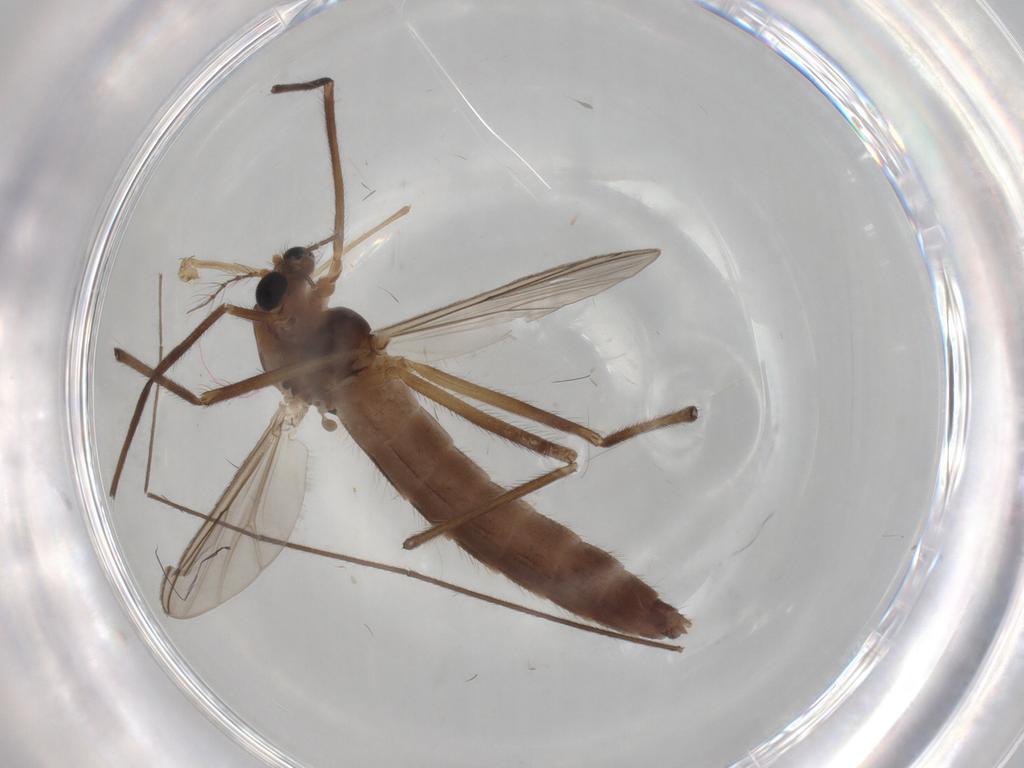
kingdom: Animalia
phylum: Arthropoda
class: Insecta
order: Diptera
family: Chironomidae
